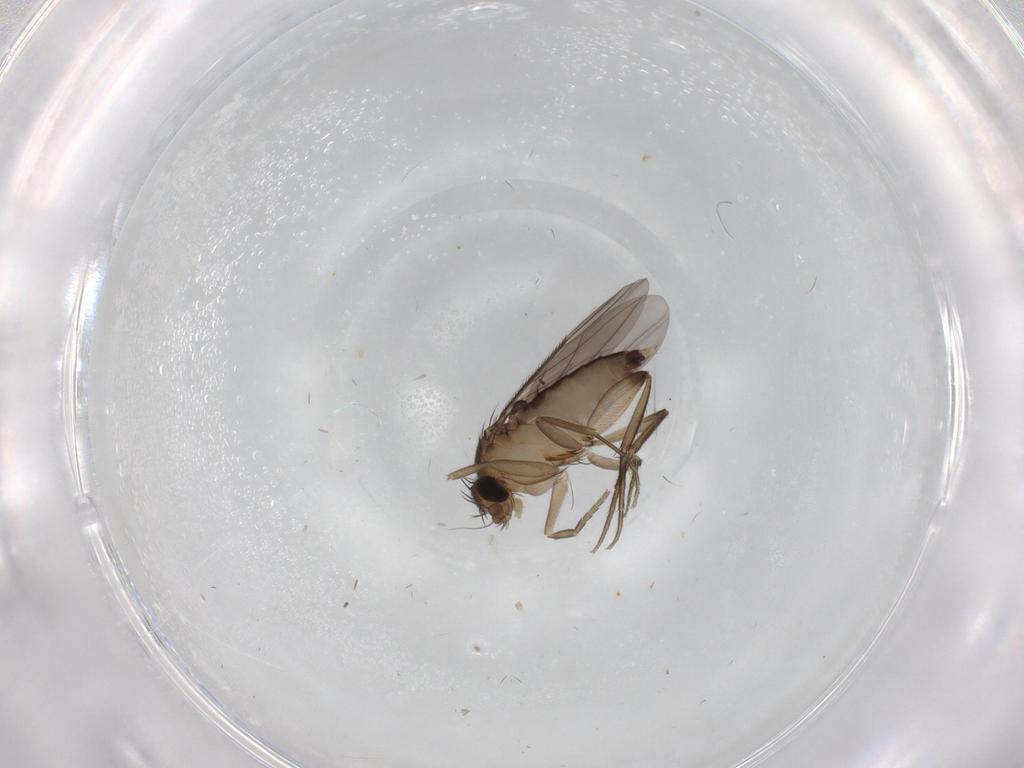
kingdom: Animalia
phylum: Arthropoda
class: Insecta
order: Diptera
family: Phoridae
